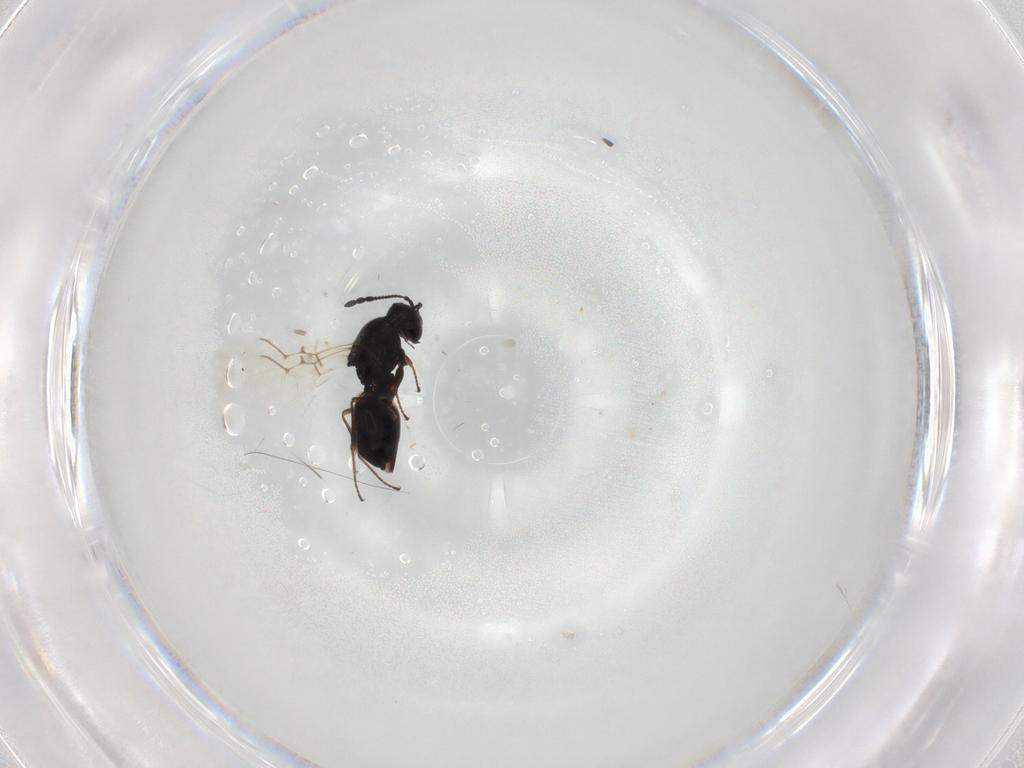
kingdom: Animalia
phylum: Arthropoda
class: Insecta
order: Hymenoptera
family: Figitidae
